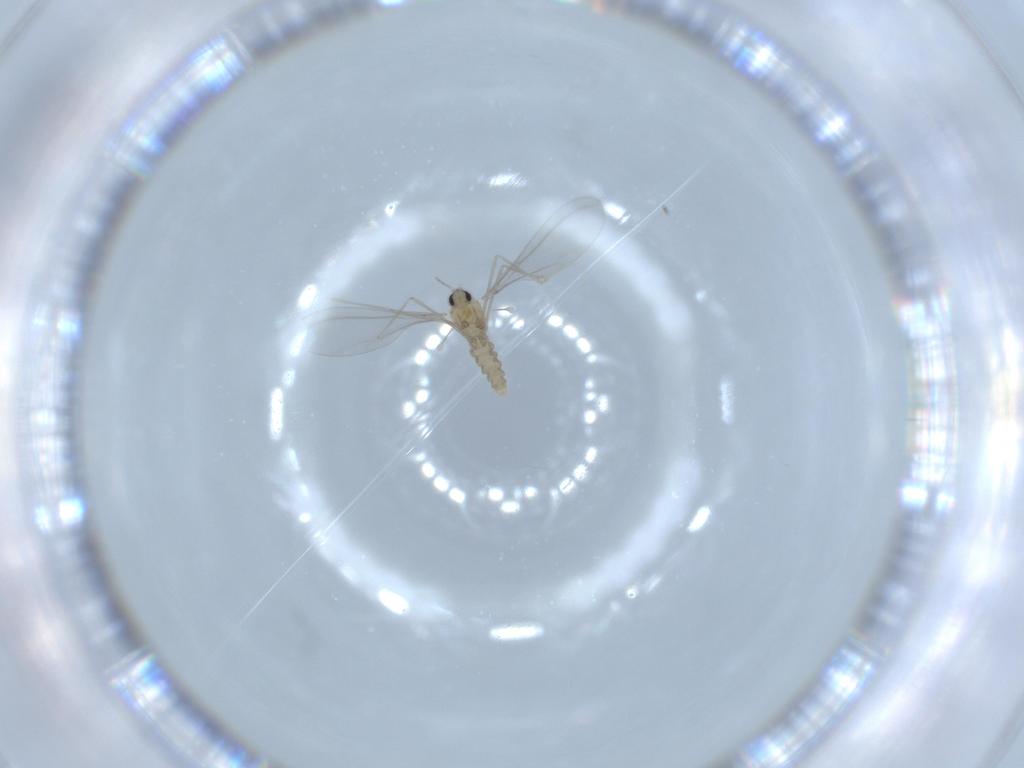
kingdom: Animalia
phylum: Arthropoda
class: Insecta
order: Diptera
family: Cecidomyiidae
